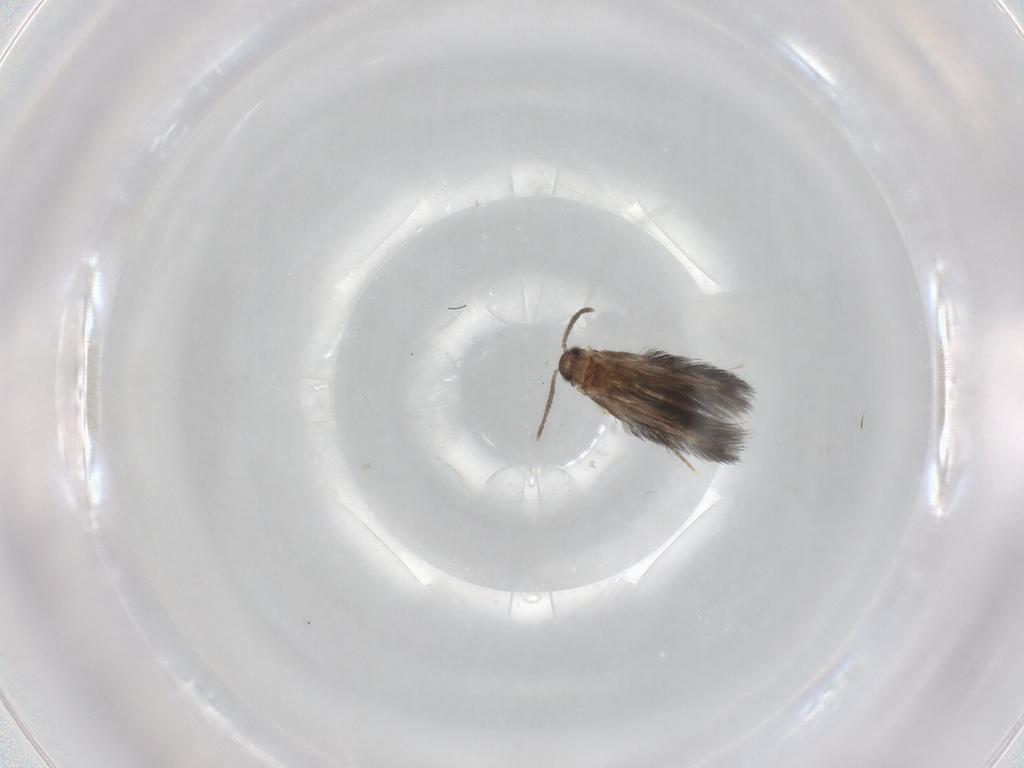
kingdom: Animalia
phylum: Arthropoda
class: Insecta
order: Trichoptera
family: Hydroptilidae
